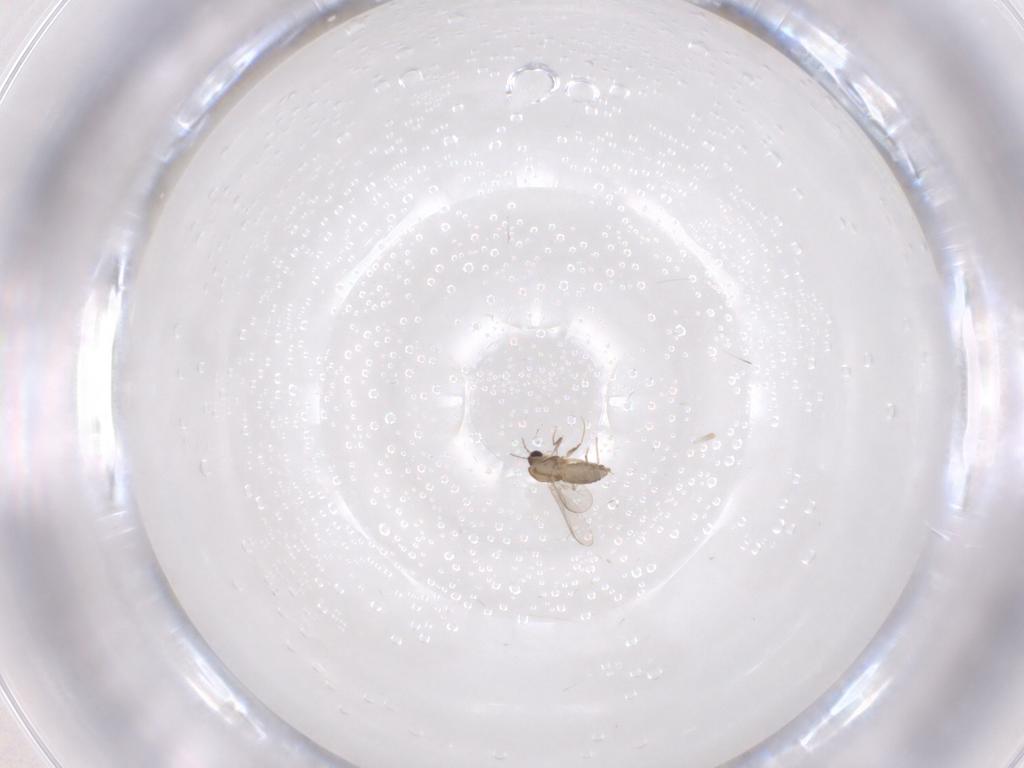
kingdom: Animalia
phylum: Arthropoda
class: Insecta
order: Diptera
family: Chironomidae
